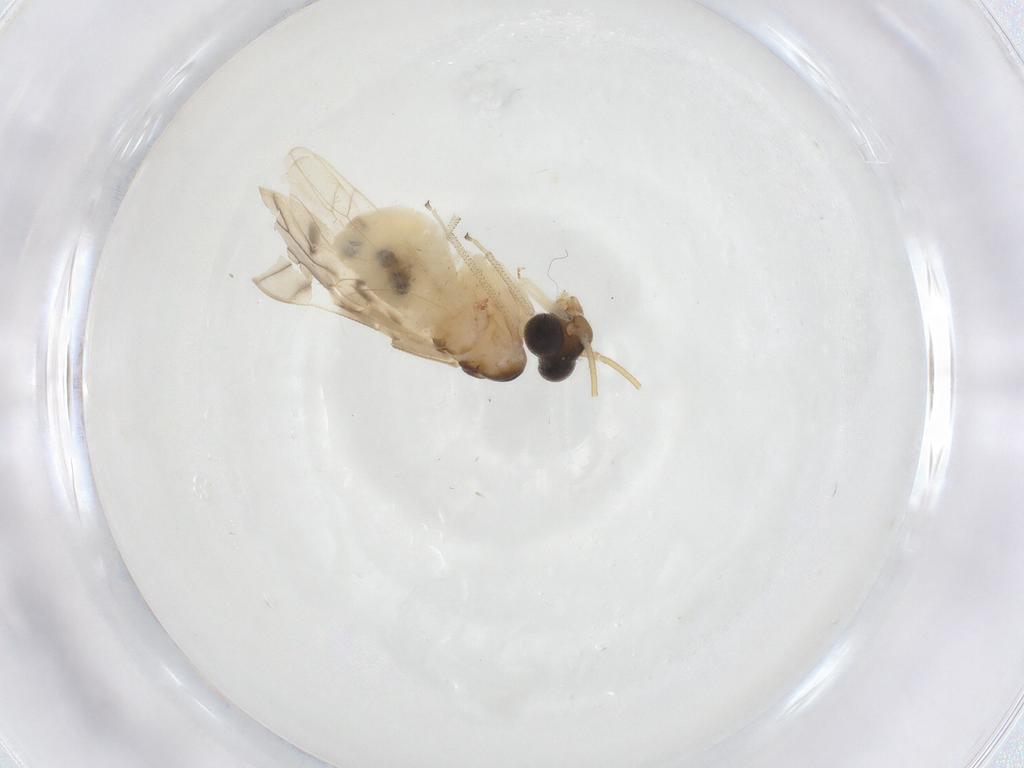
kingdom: Animalia
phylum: Arthropoda
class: Insecta
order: Psocodea
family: Caeciliusidae
